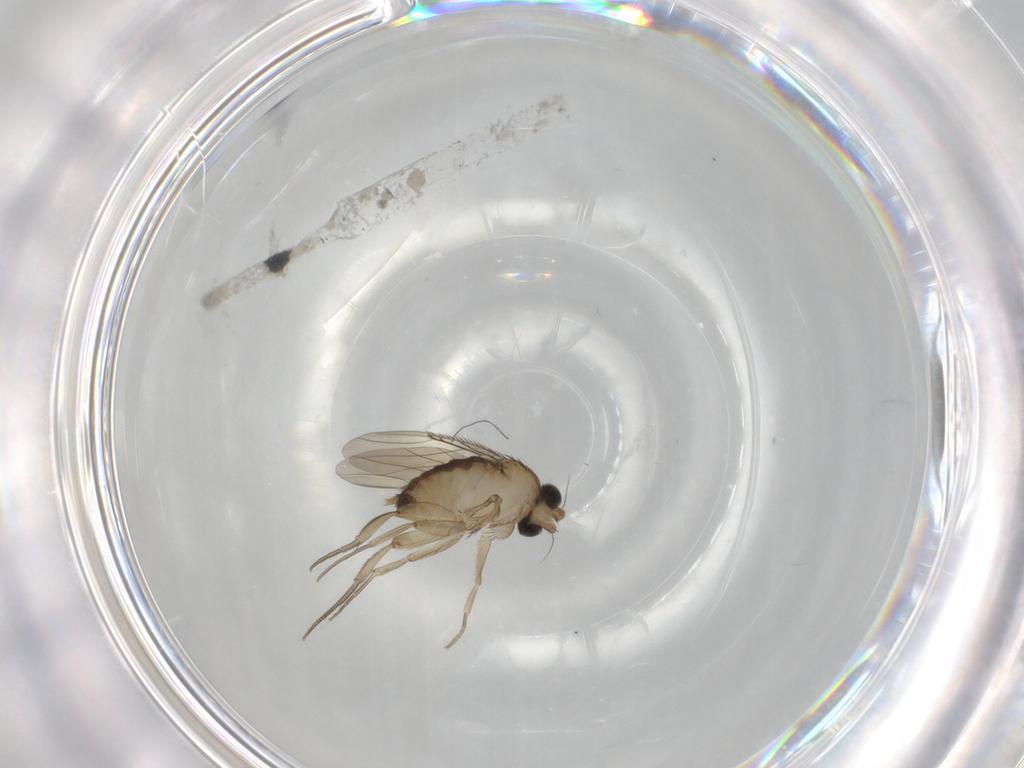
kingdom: Animalia
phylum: Arthropoda
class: Insecta
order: Diptera
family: Phoridae
